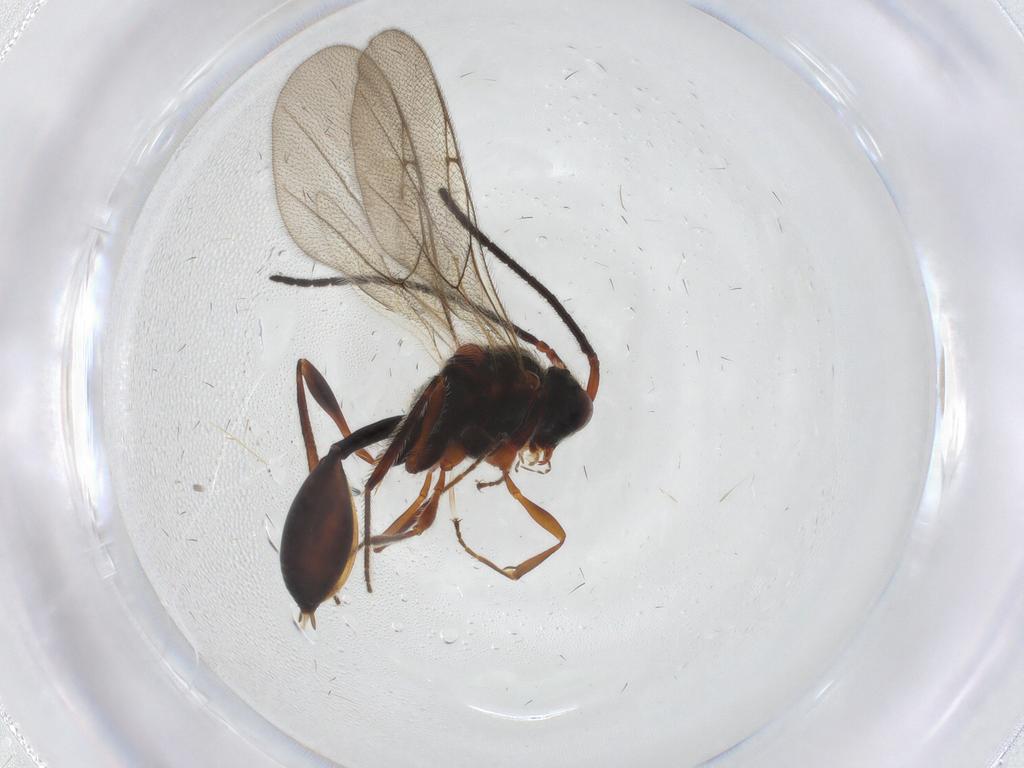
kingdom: Animalia
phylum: Arthropoda
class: Insecta
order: Hymenoptera
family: Diapriidae
